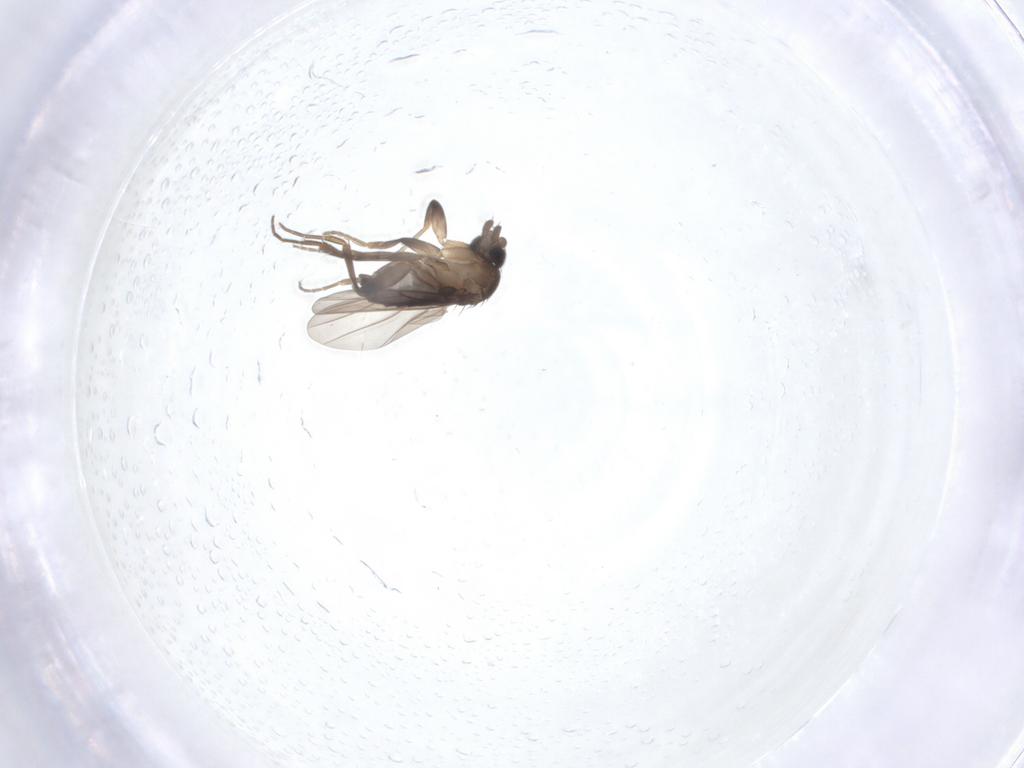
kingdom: Animalia
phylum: Arthropoda
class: Insecta
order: Diptera
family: Phoridae
